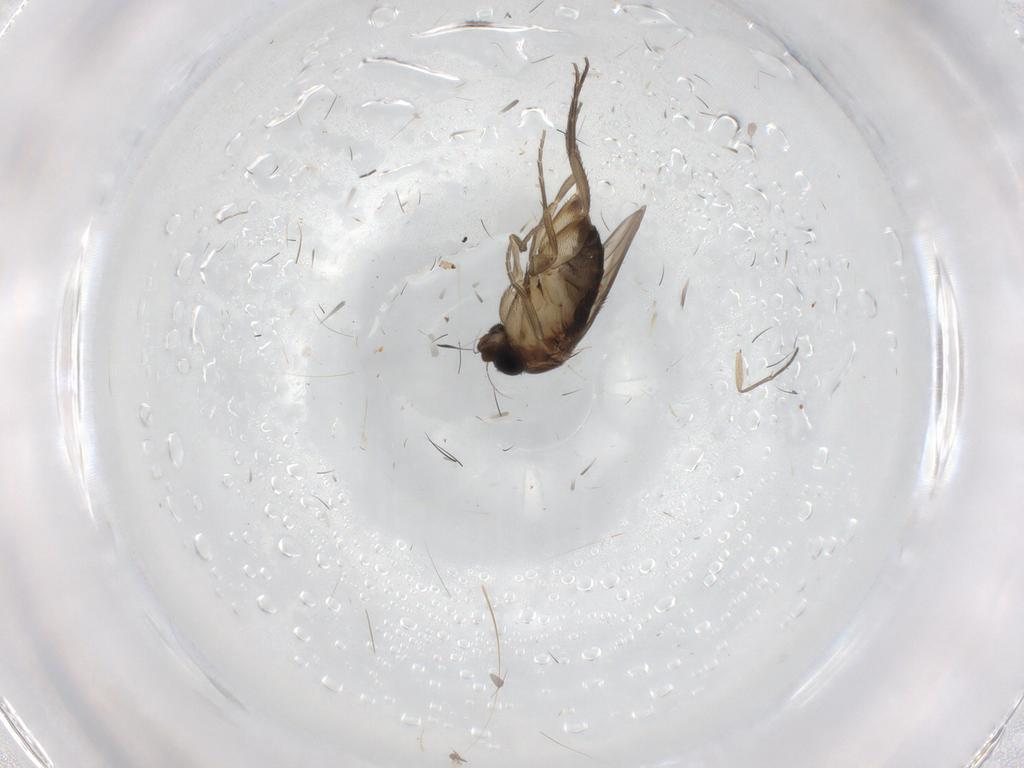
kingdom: Animalia
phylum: Arthropoda
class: Insecta
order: Diptera
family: Phoridae
